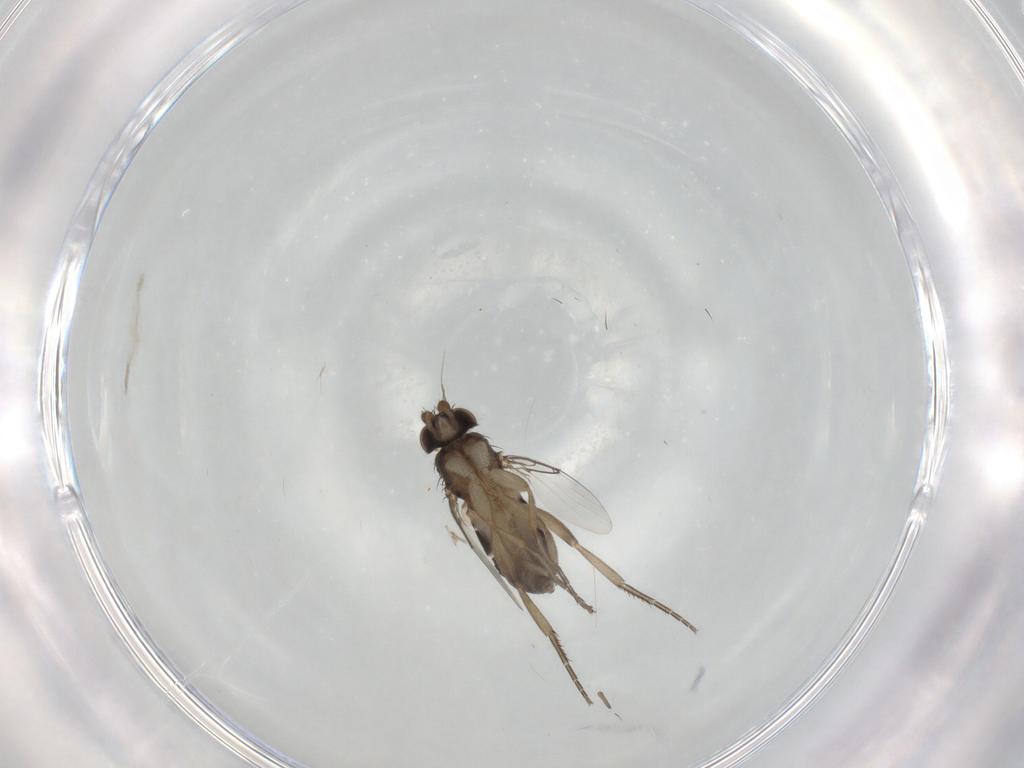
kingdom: Animalia
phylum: Arthropoda
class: Insecta
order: Diptera
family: Phoridae
